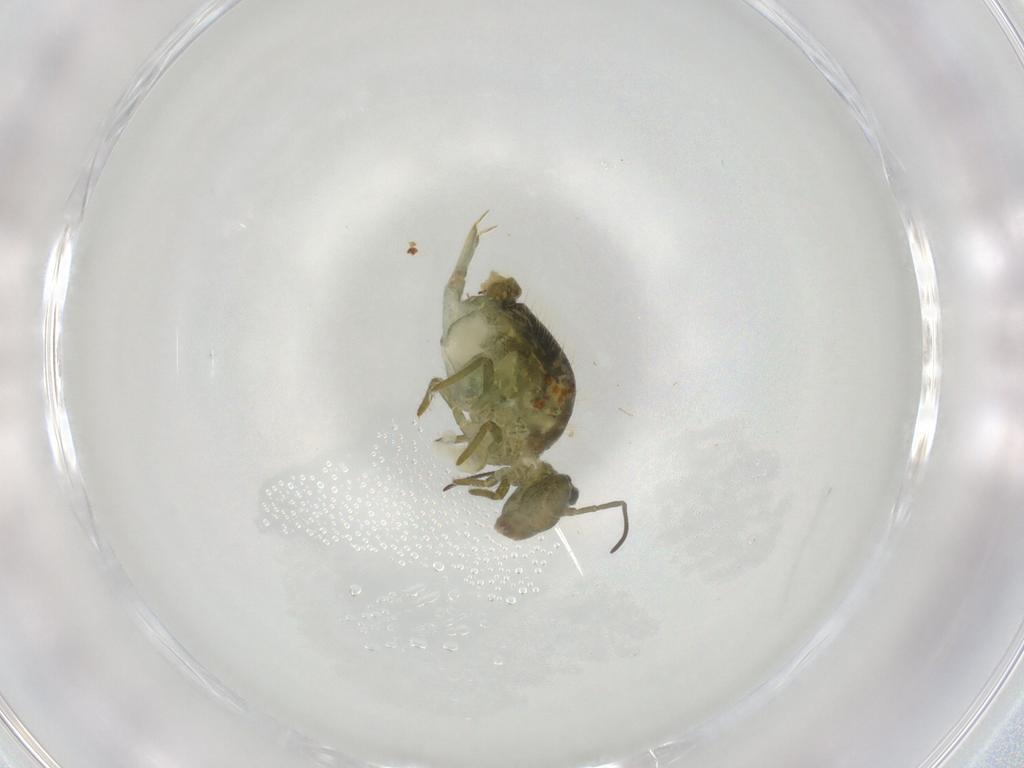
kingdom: Animalia
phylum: Arthropoda
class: Collembola
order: Symphypleona
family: Sminthuridae
